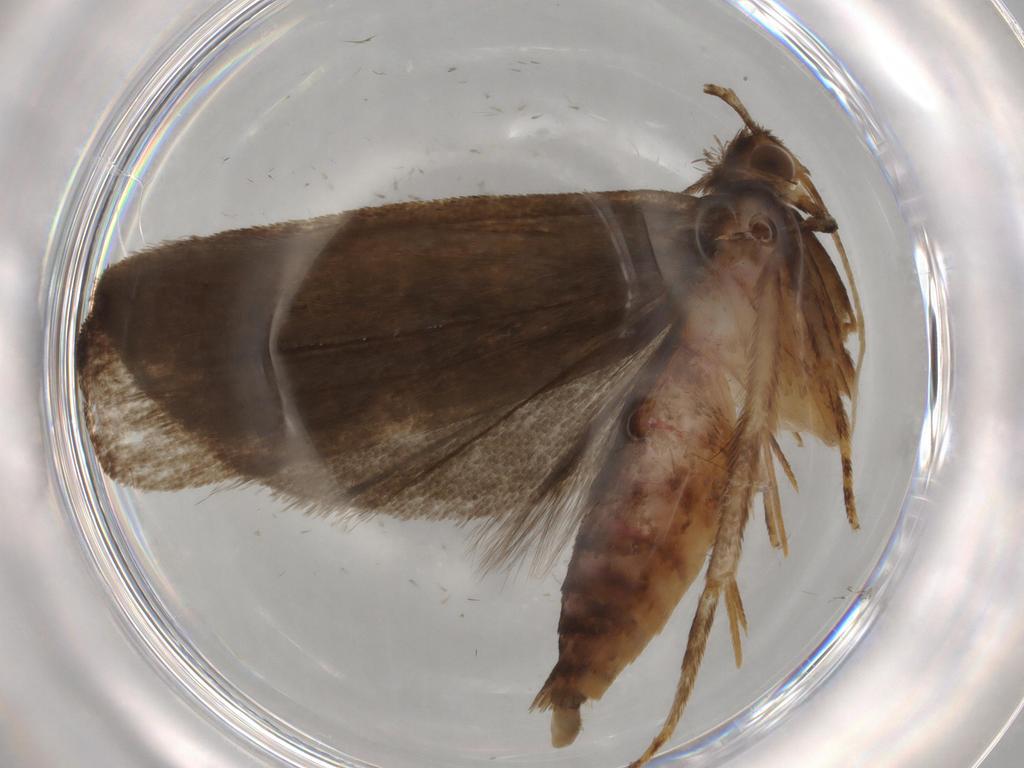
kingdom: Animalia
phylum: Arthropoda
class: Insecta
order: Lepidoptera
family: Autostichidae
